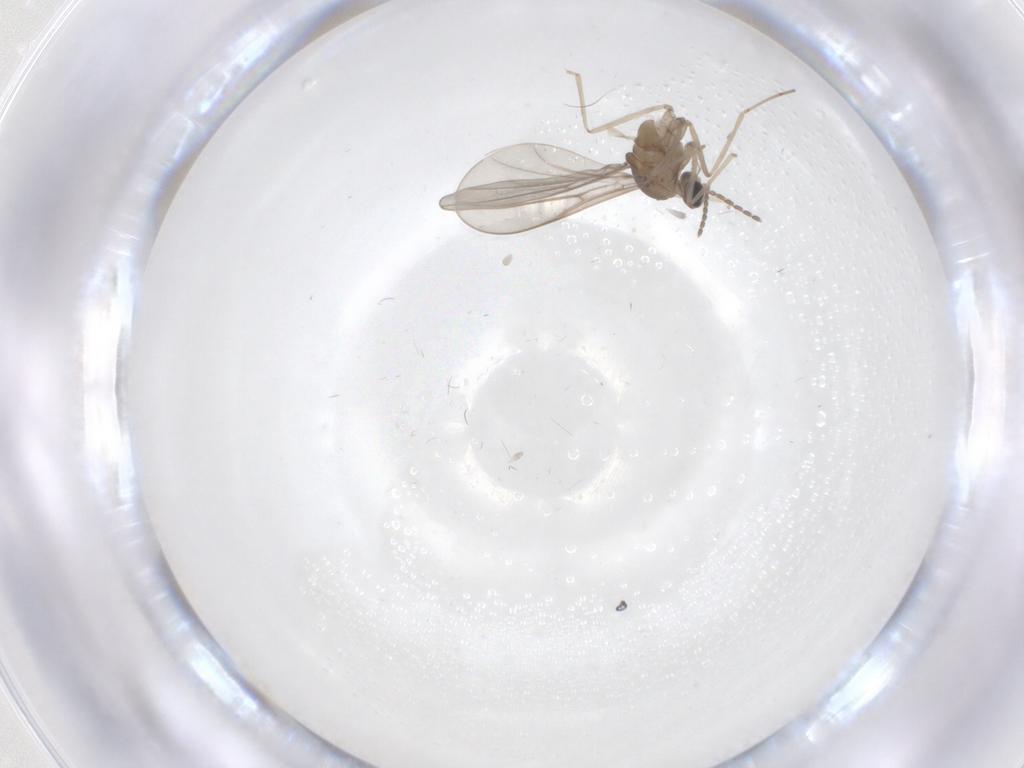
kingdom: Animalia
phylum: Arthropoda
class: Insecta
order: Diptera
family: Cecidomyiidae
